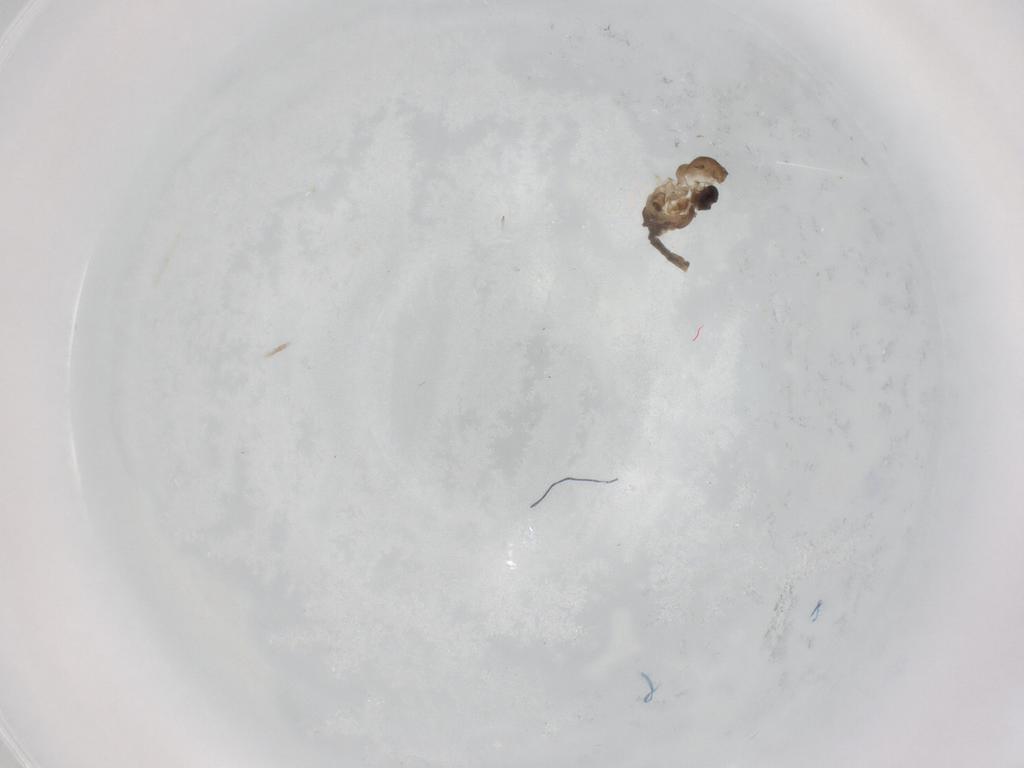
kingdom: Animalia
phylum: Arthropoda
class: Insecta
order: Diptera
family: Psychodidae
